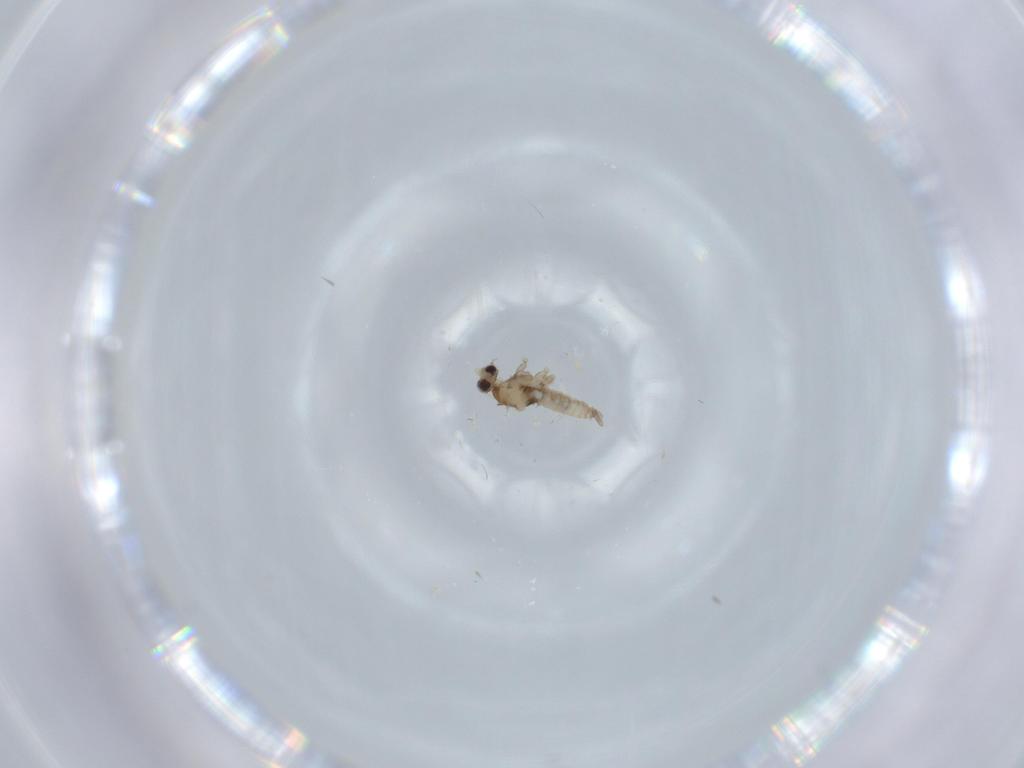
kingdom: Animalia
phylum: Arthropoda
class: Insecta
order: Diptera
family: Cecidomyiidae
